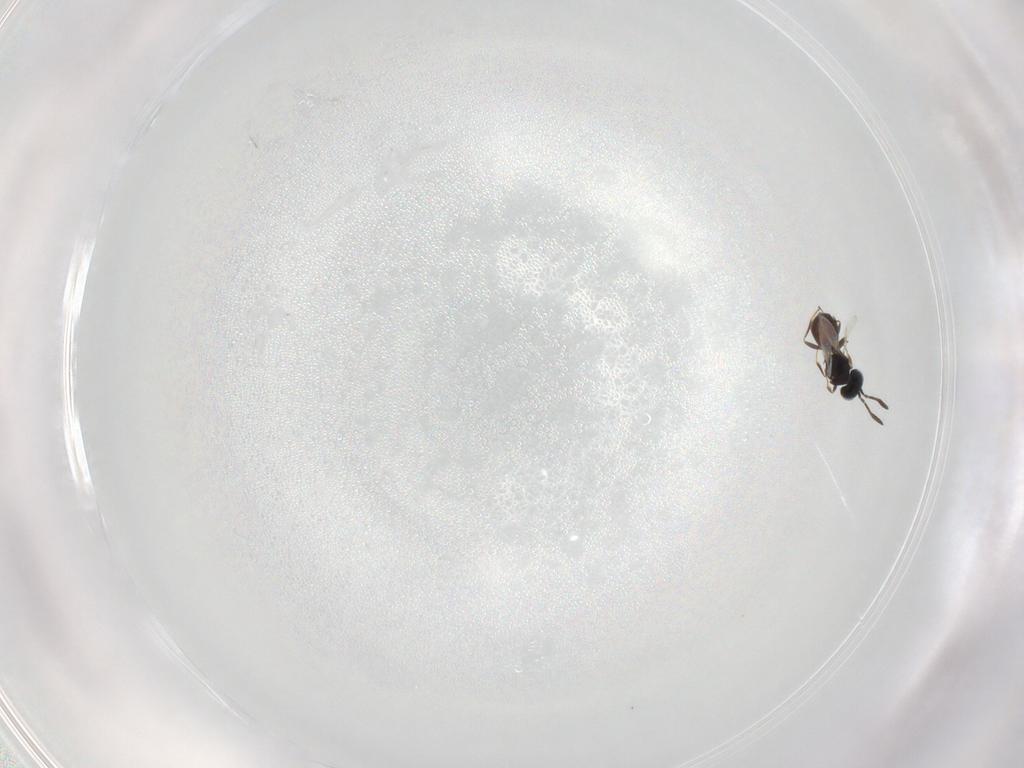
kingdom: Animalia
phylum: Arthropoda
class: Insecta
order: Hymenoptera
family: Scelionidae
